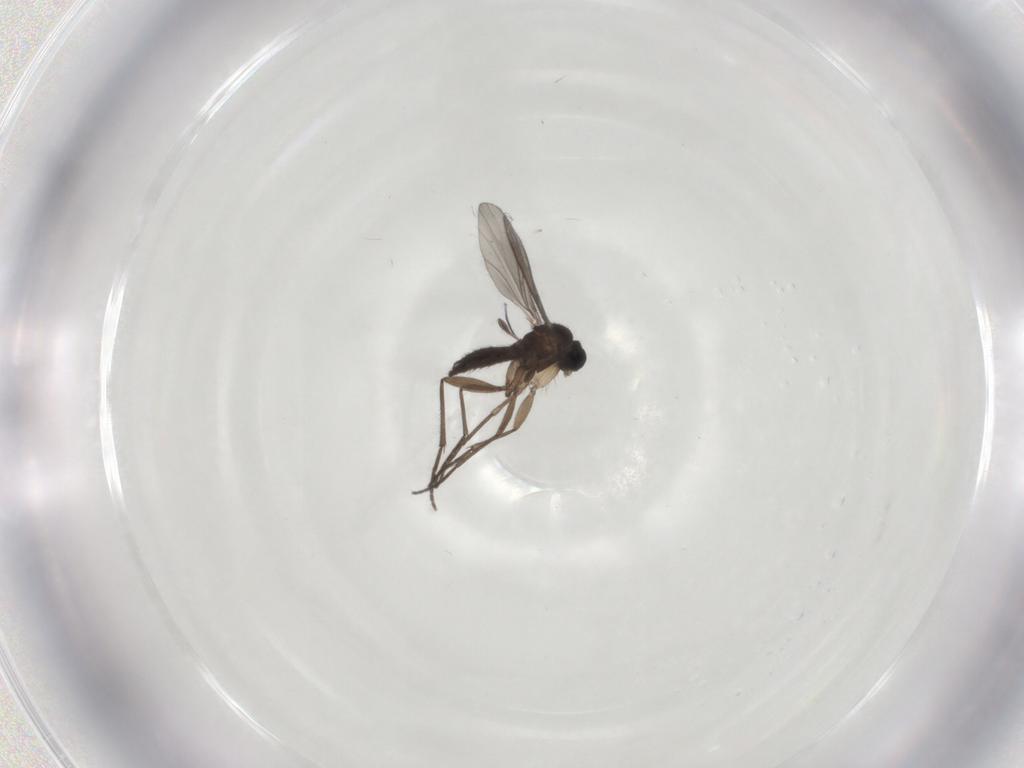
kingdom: Animalia
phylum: Arthropoda
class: Insecta
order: Diptera
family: Sciaridae
